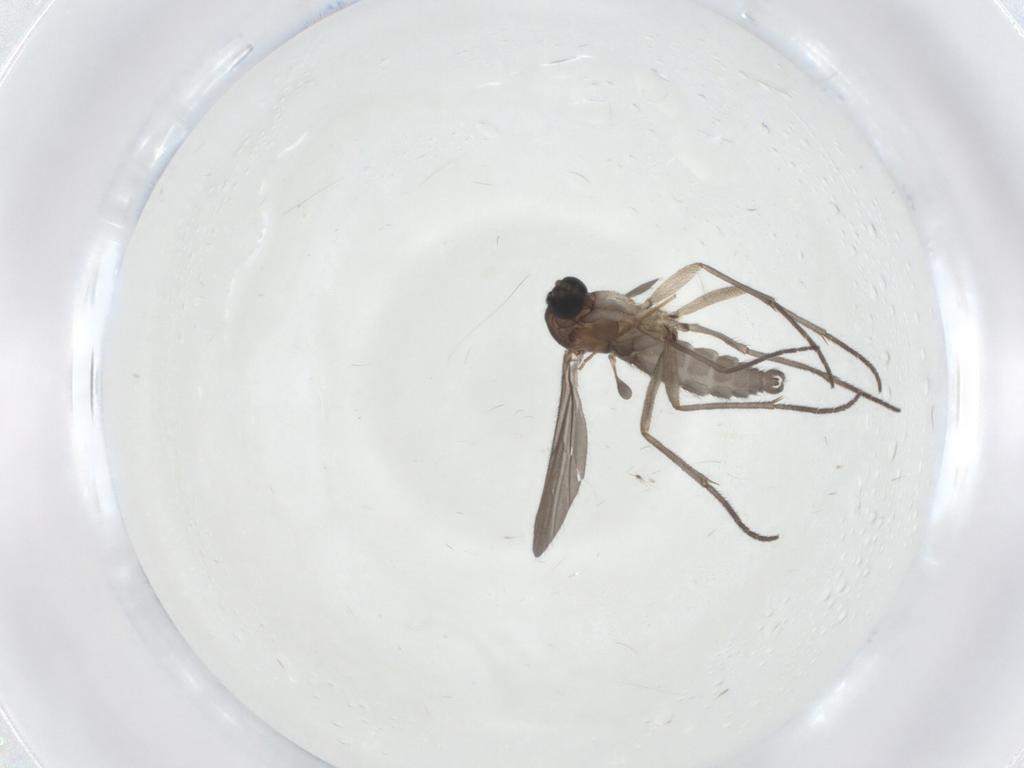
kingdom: Animalia
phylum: Arthropoda
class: Insecta
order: Diptera
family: Sciaridae
